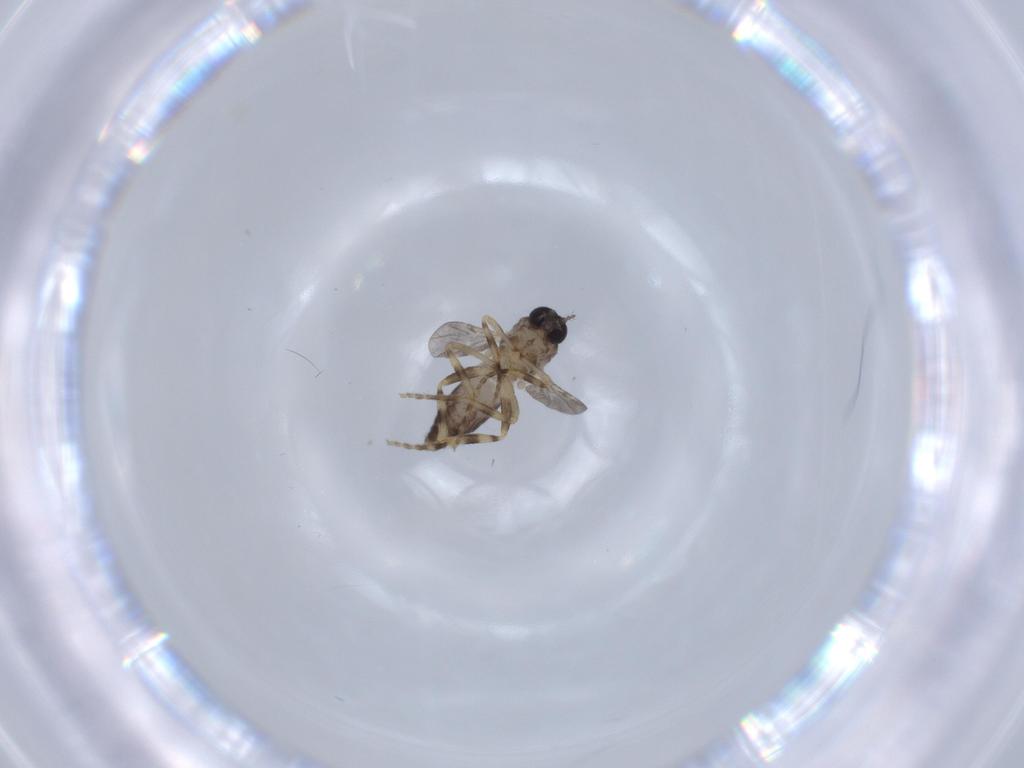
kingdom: Animalia
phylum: Arthropoda
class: Insecta
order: Diptera
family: Ceratopogonidae
